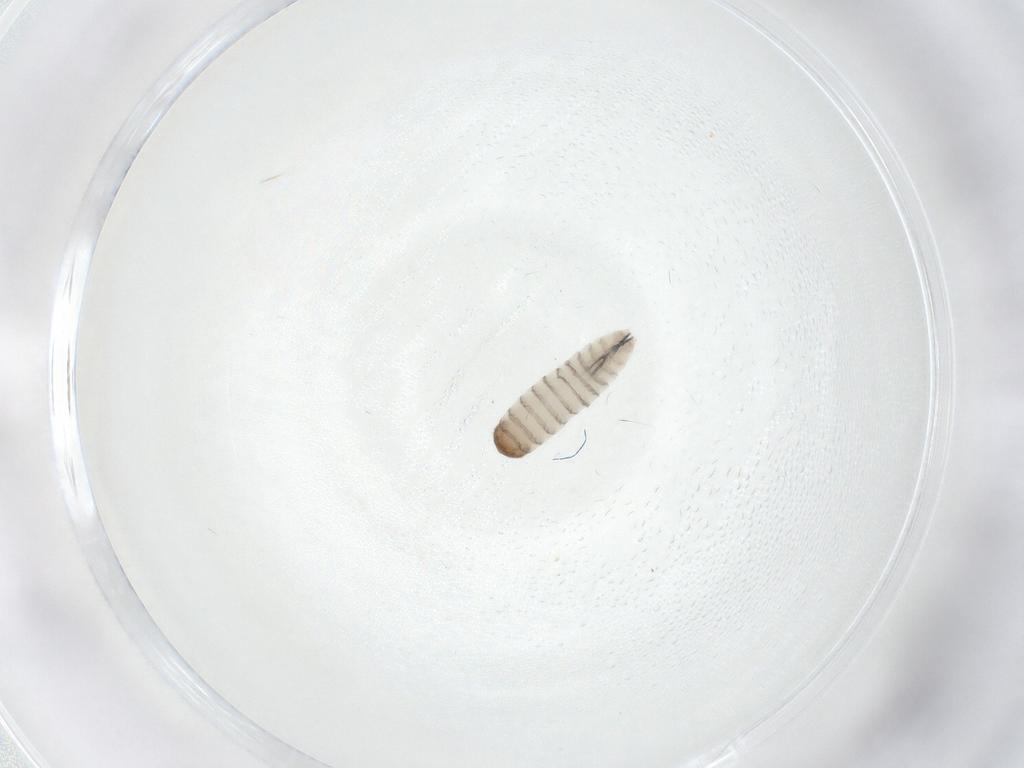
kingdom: Animalia
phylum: Arthropoda
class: Insecta
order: Diptera
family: Sarcophagidae
